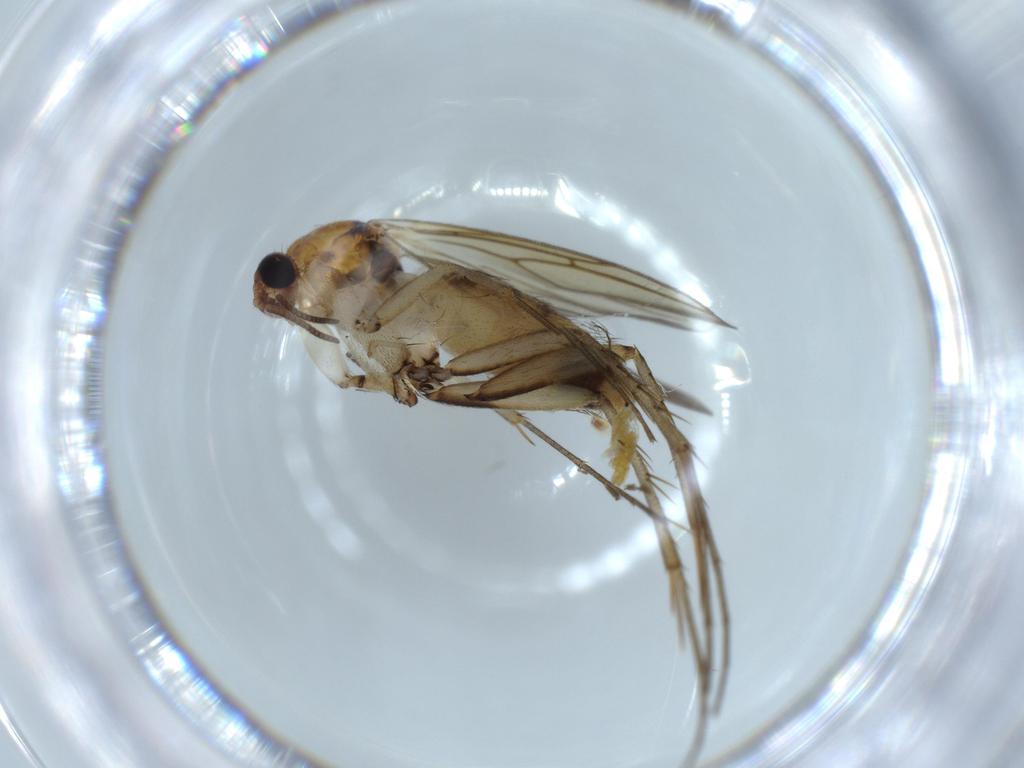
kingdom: Animalia
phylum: Arthropoda
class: Insecta
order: Diptera
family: Mycetophilidae
